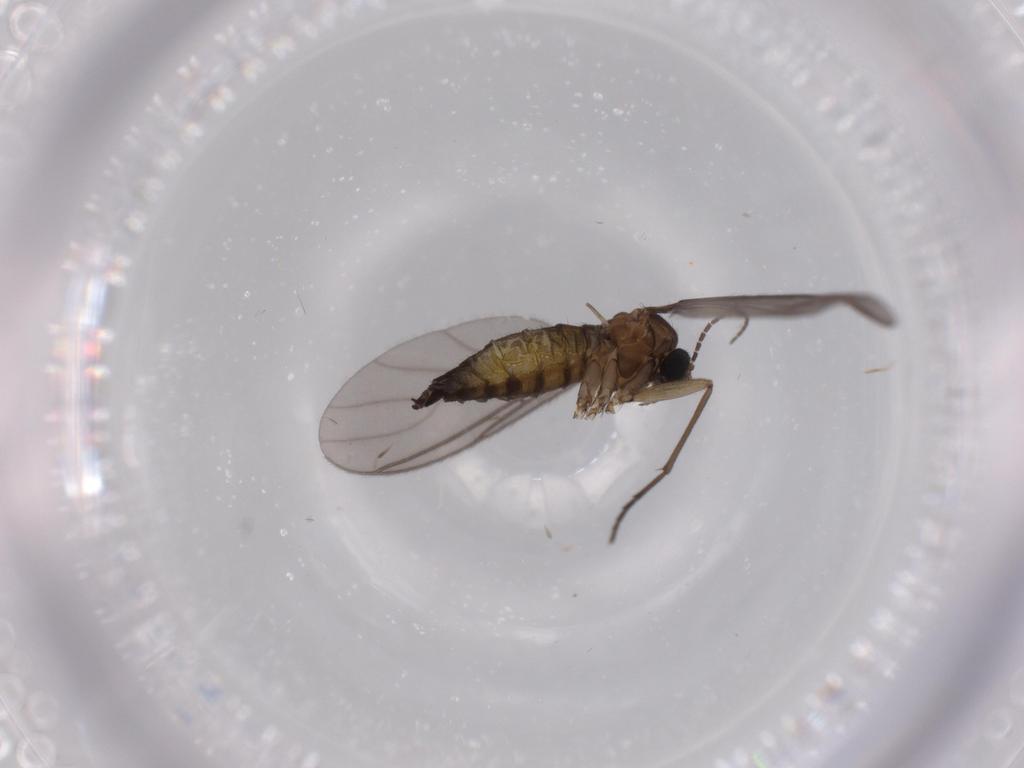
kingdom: Animalia
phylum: Arthropoda
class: Insecta
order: Diptera
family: Sciaridae
